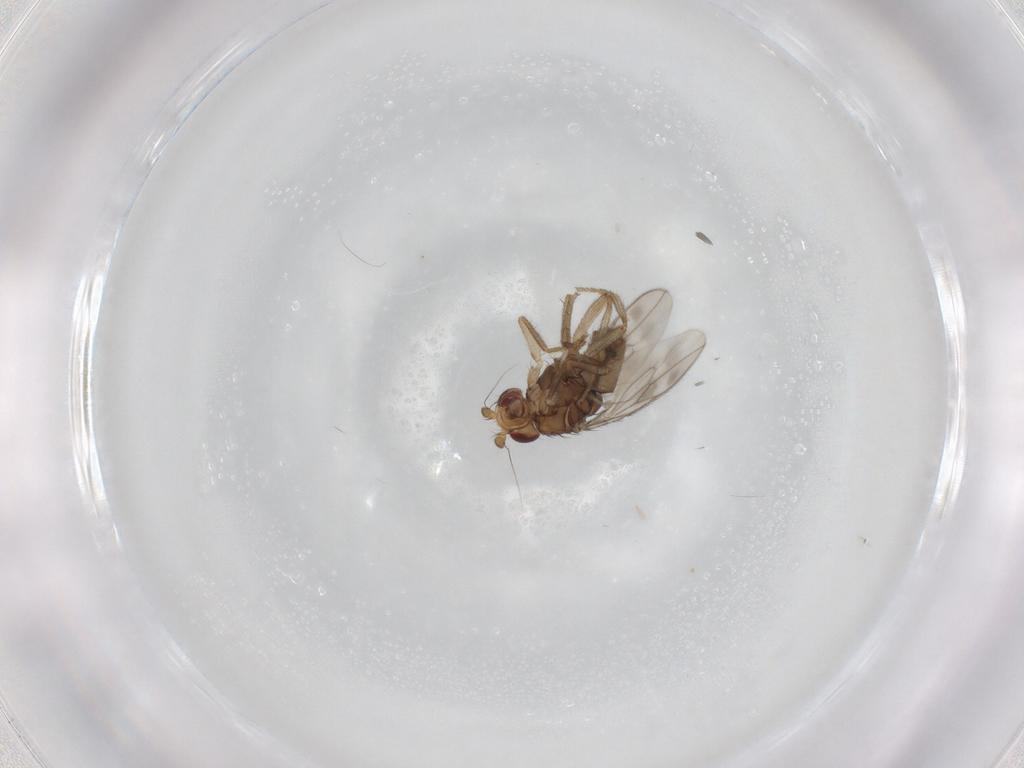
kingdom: Animalia
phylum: Arthropoda
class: Insecta
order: Diptera
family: Sphaeroceridae
